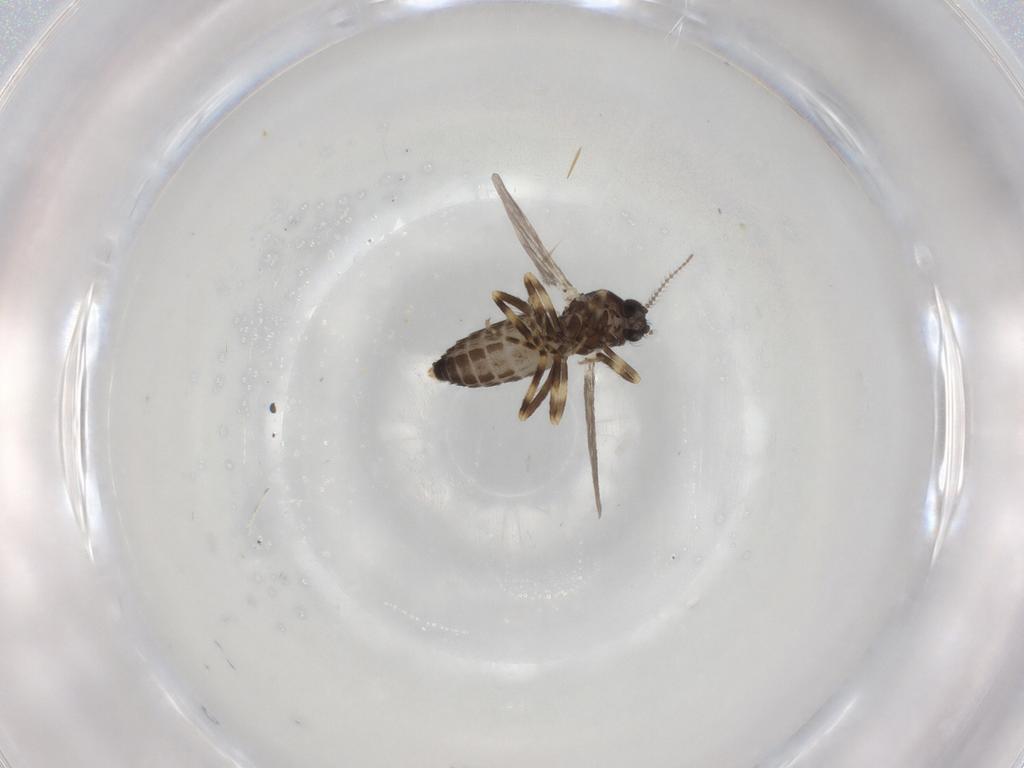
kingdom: Animalia
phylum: Arthropoda
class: Insecta
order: Diptera
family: Ceratopogonidae
